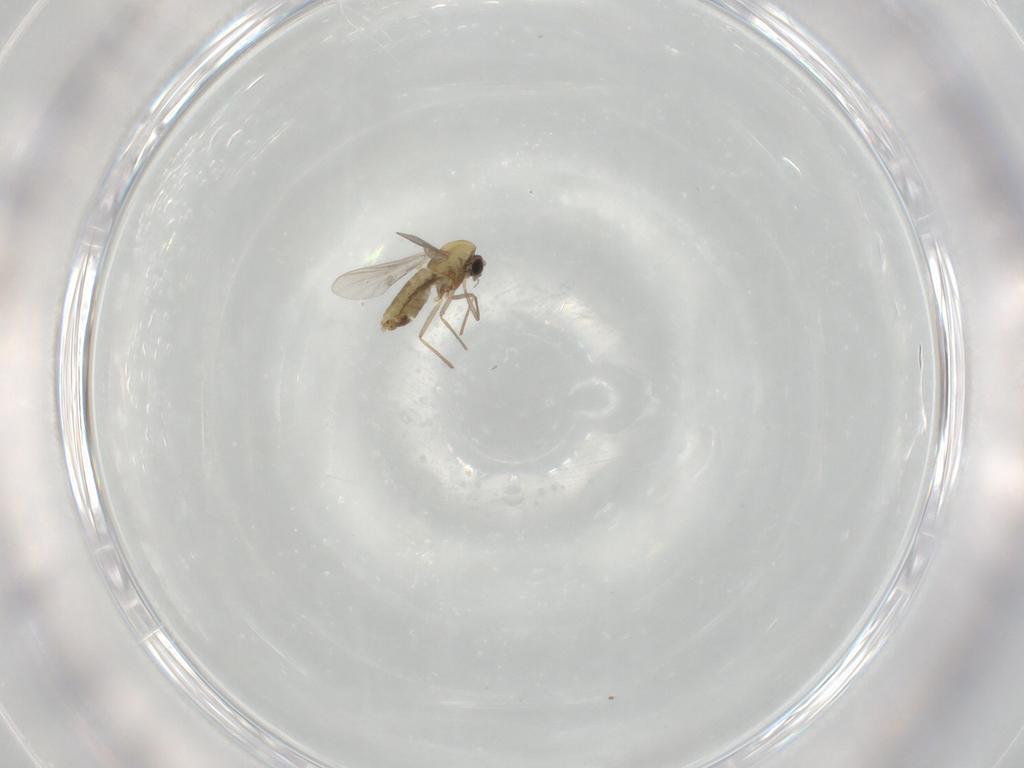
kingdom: Animalia
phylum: Arthropoda
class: Insecta
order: Diptera
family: Chironomidae
